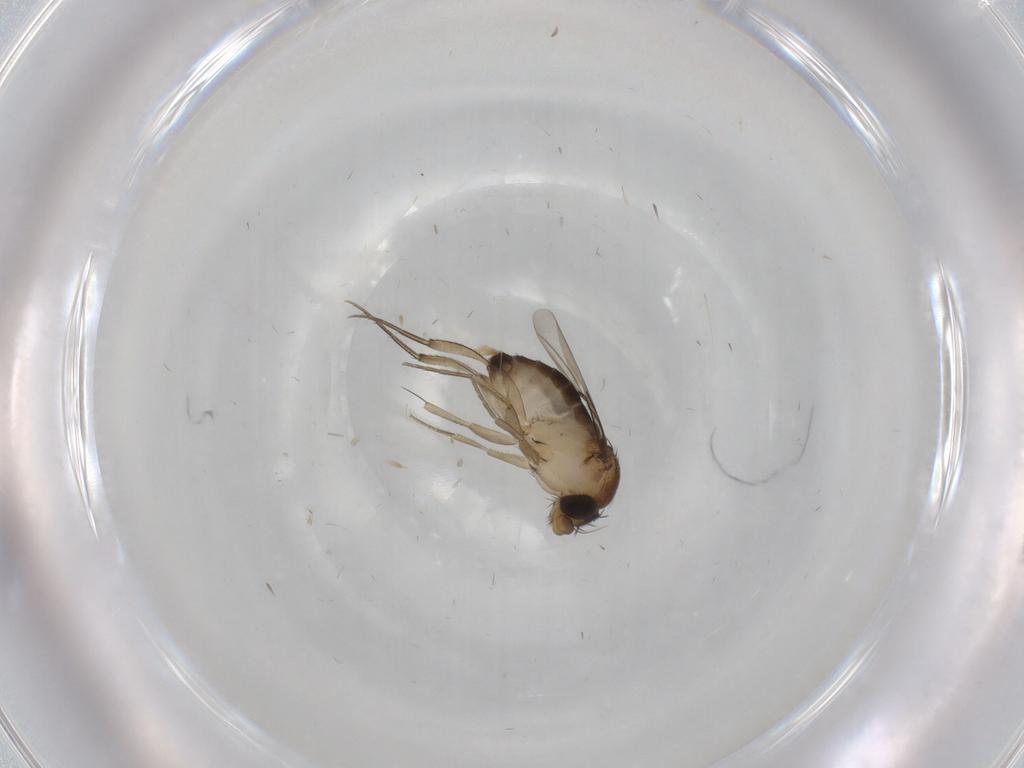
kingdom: Animalia
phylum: Arthropoda
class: Insecta
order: Diptera
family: Phoridae
